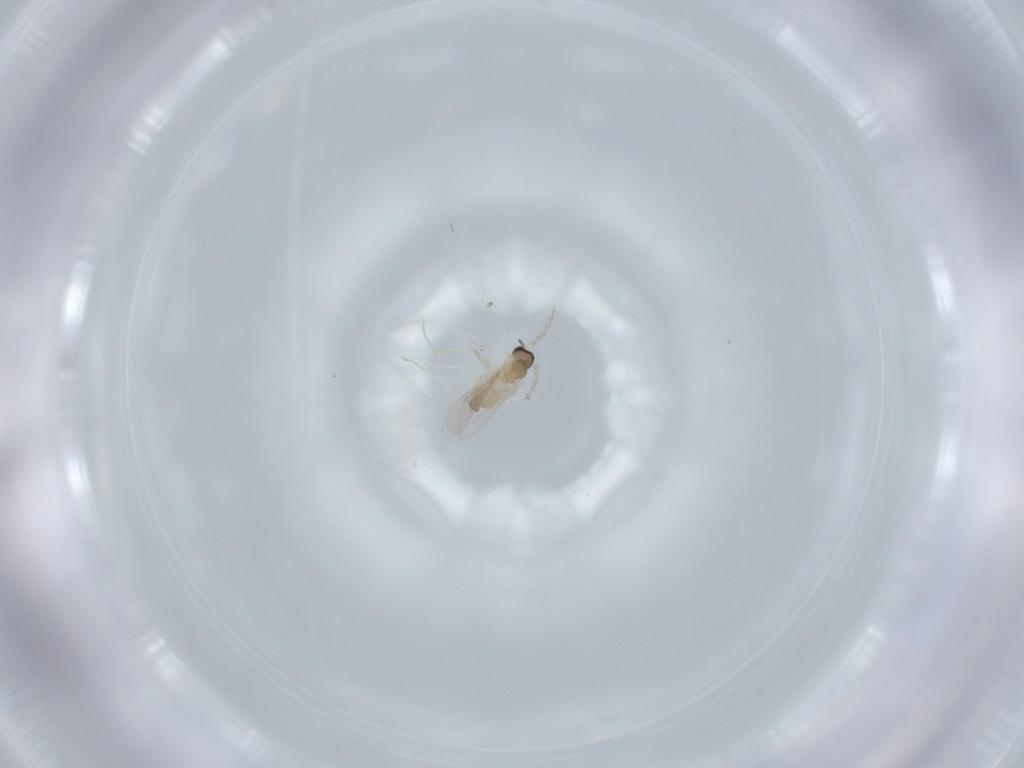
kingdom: Animalia
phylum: Arthropoda
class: Insecta
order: Diptera
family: Cecidomyiidae
